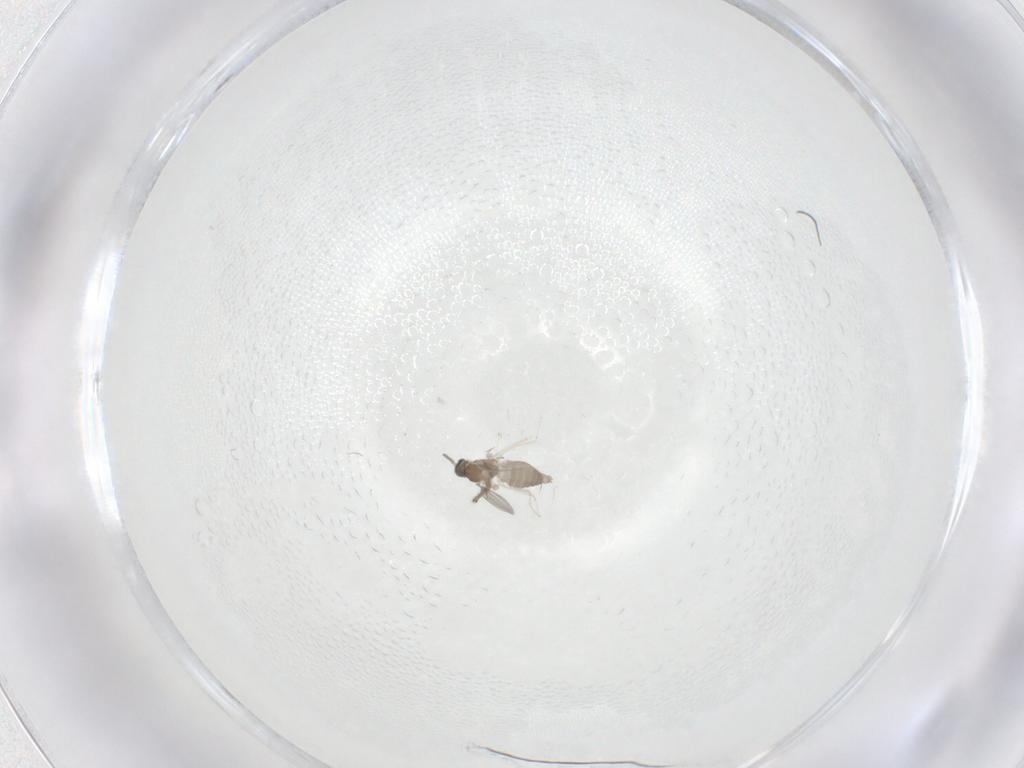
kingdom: Animalia
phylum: Arthropoda
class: Insecta
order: Diptera
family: Cecidomyiidae
